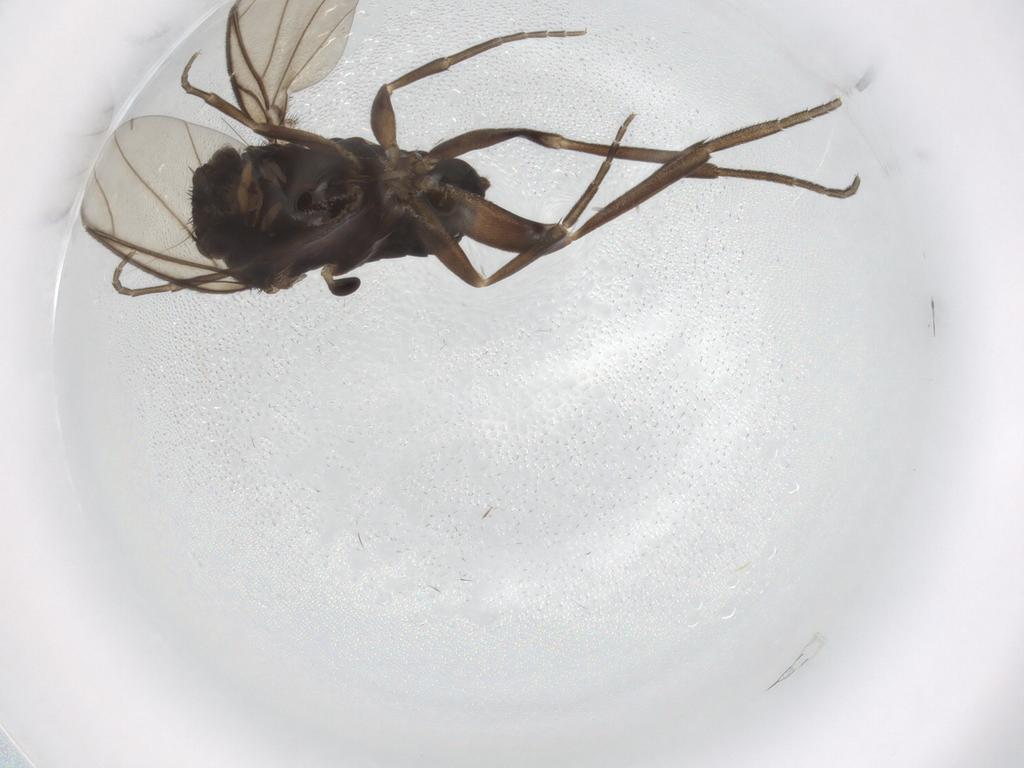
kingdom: Animalia
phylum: Arthropoda
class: Insecta
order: Diptera
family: Phoridae
